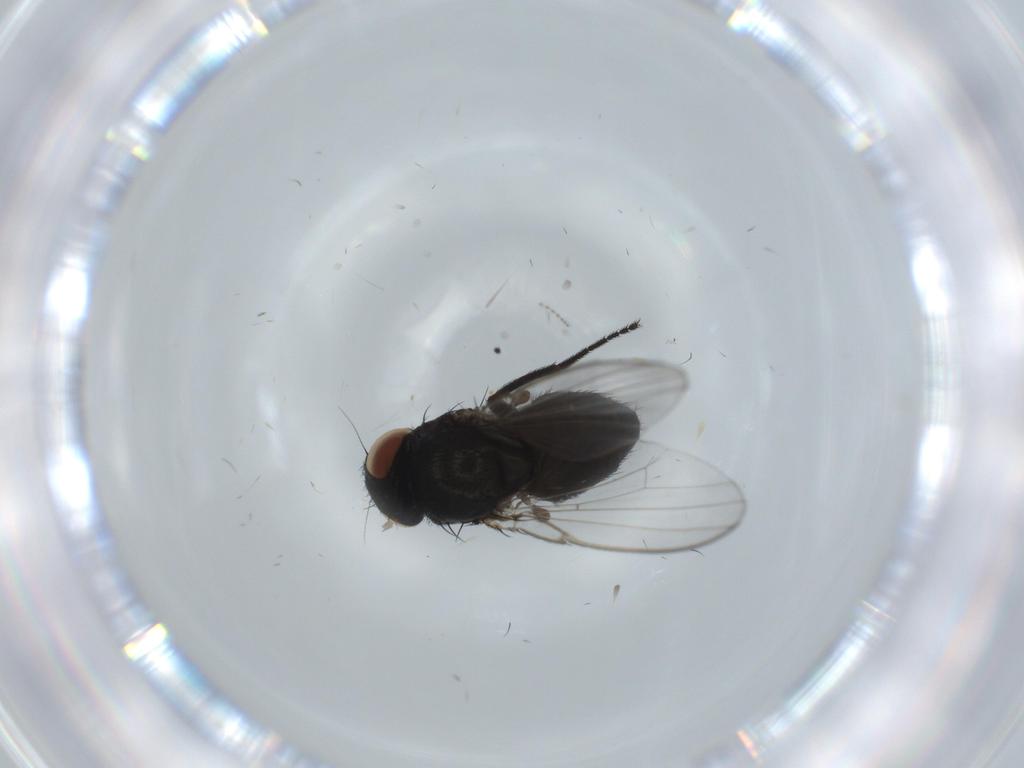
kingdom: Animalia
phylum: Arthropoda
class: Insecta
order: Diptera
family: Milichiidae
